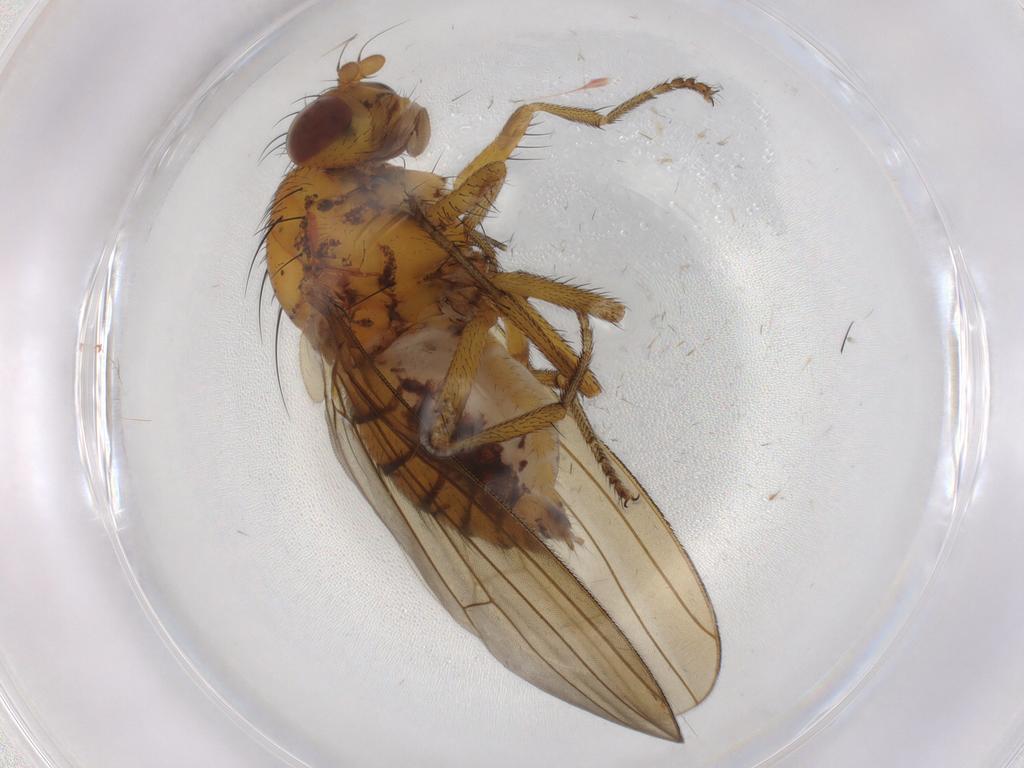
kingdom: Animalia
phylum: Arthropoda
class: Insecta
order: Diptera
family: Lauxaniidae
